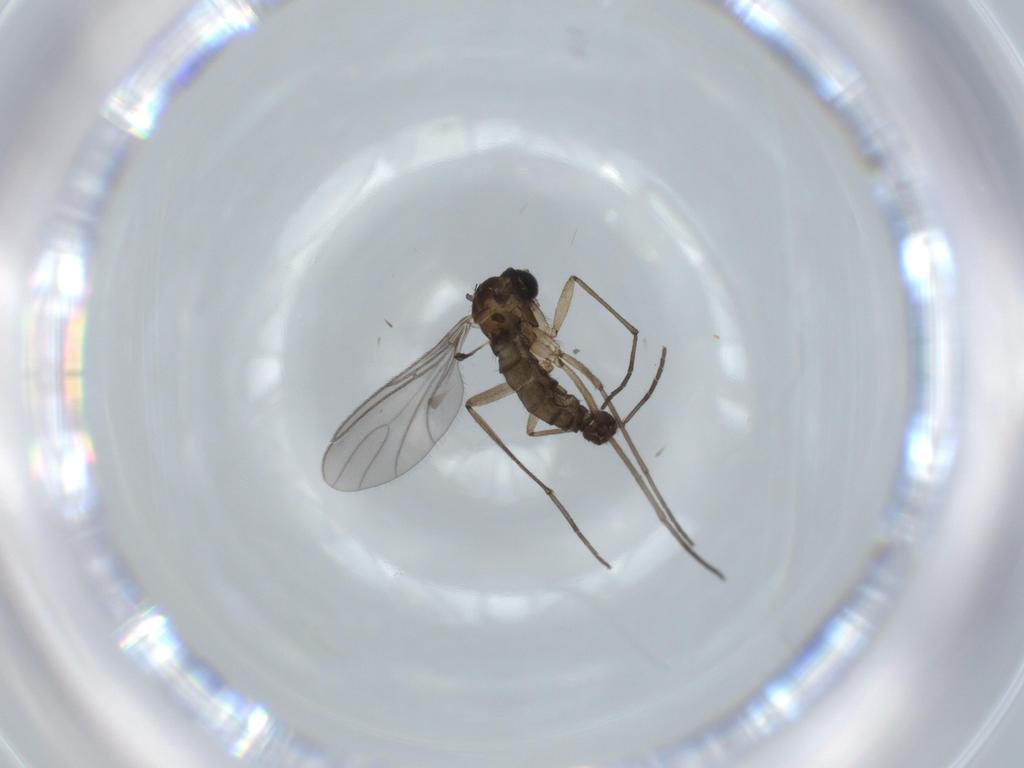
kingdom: Animalia
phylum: Arthropoda
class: Insecta
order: Diptera
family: Sciaridae
